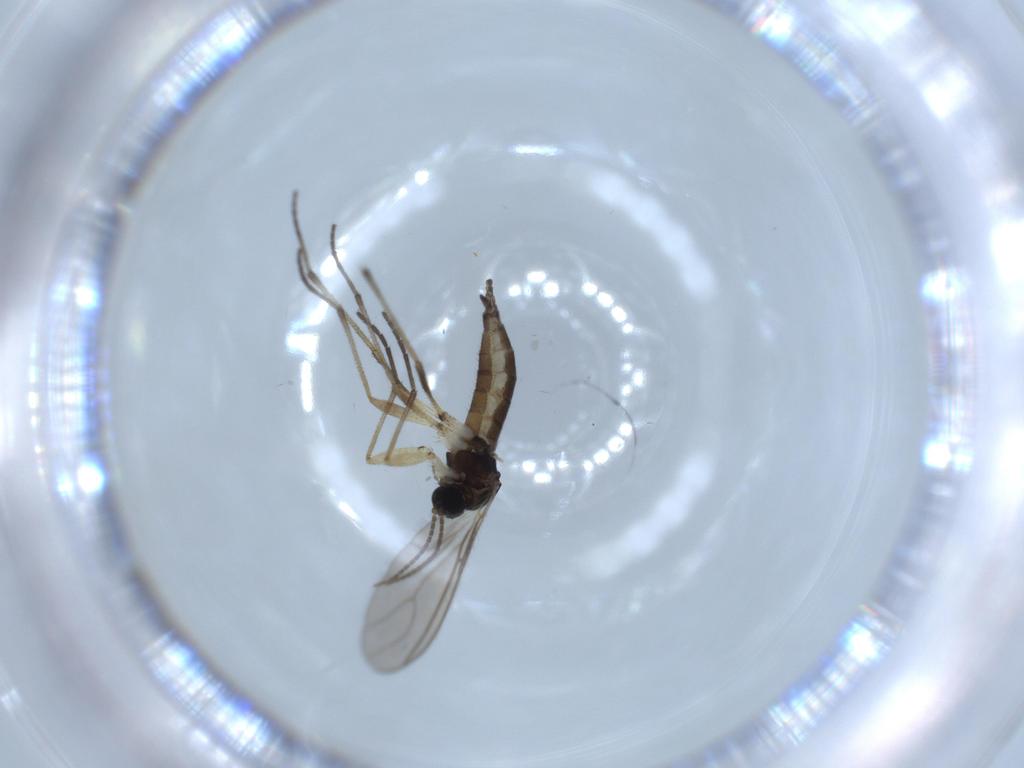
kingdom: Animalia
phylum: Arthropoda
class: Insecta
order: Diptera
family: Sciaridae
